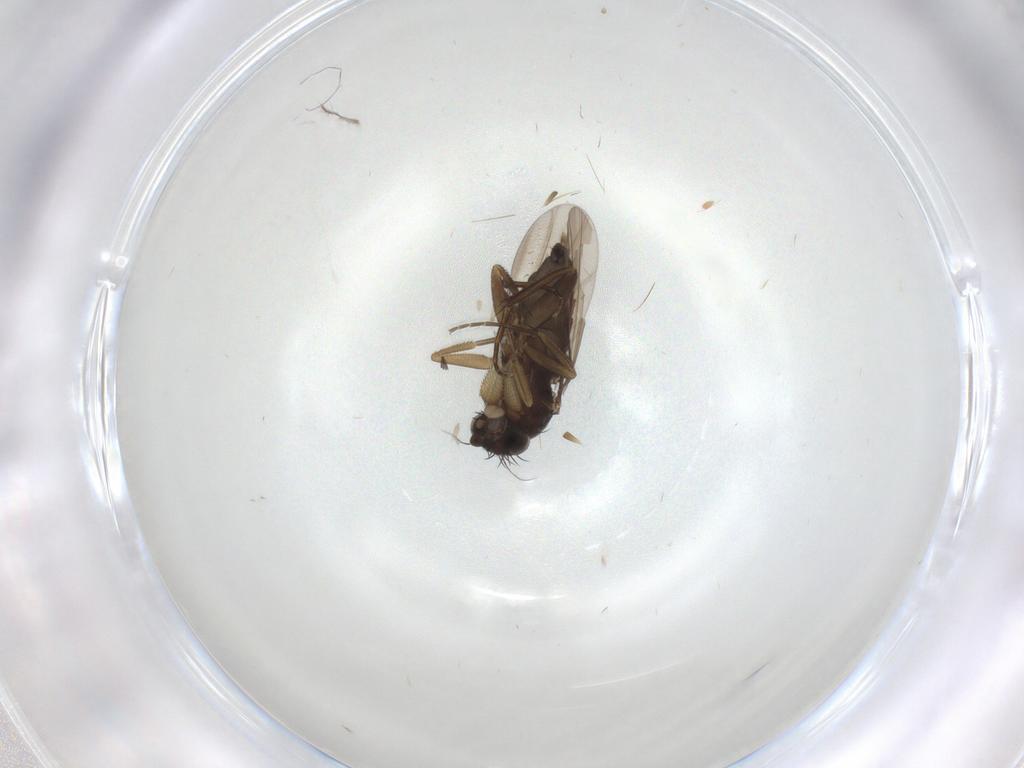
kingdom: Animalia
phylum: Arthropoda
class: Insecta
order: Diptera
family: Phoridae
